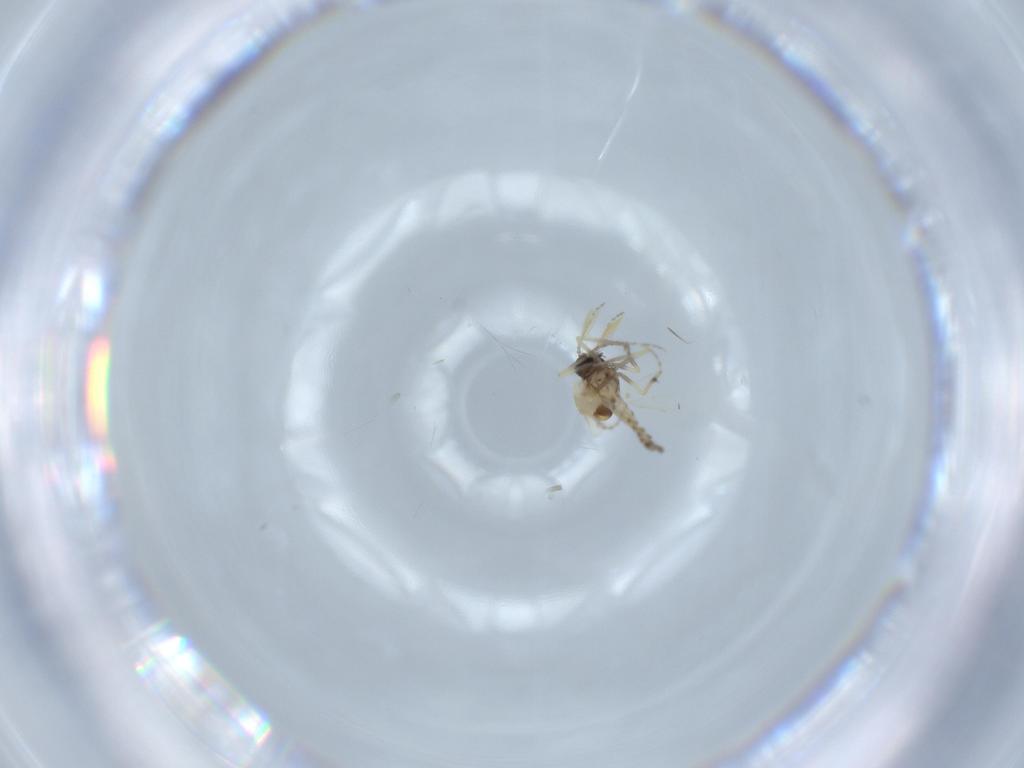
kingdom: Animalia
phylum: Arthropoda
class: Insecta
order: Diptera
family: Ceratopogonidae
